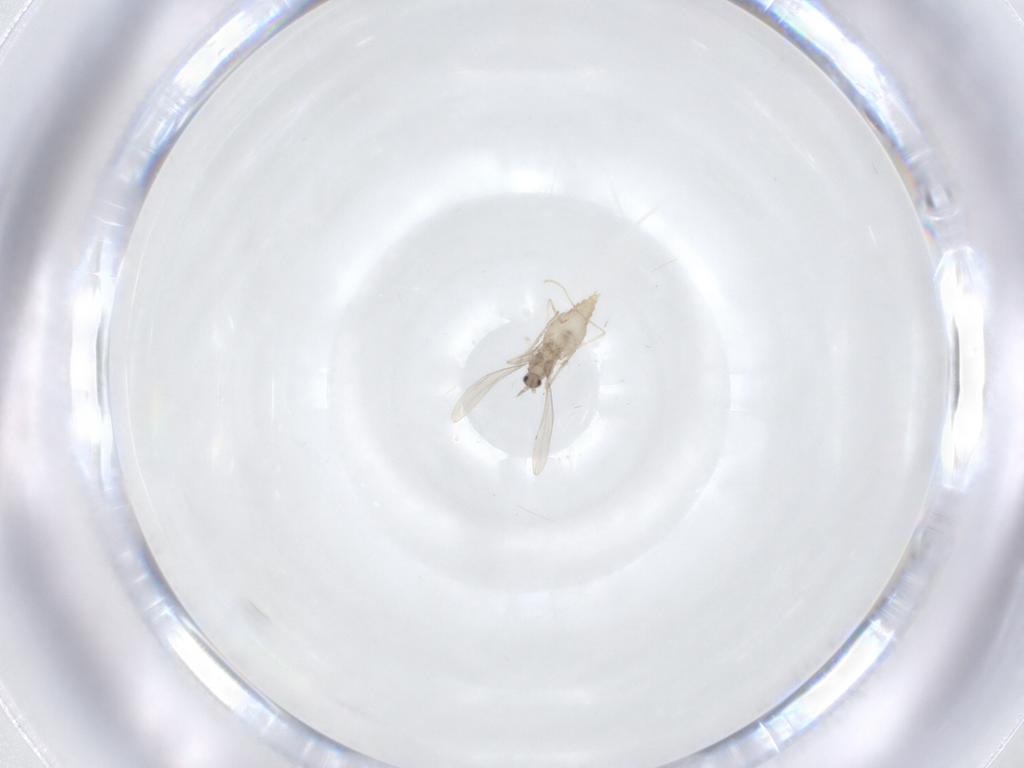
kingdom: Animalia
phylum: Arthropoda
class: Insecta
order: Diptera
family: Cecidomyiidae
